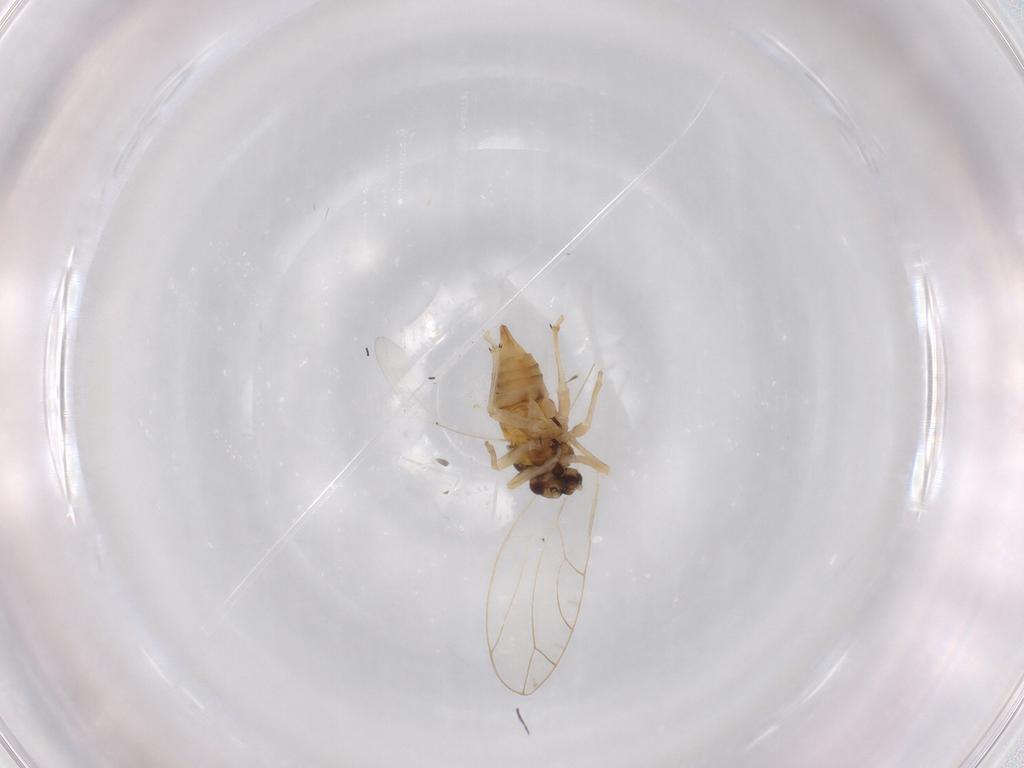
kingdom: Animalia
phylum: Arthropoda
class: Insecta
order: Hemiptera
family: Triozidae
